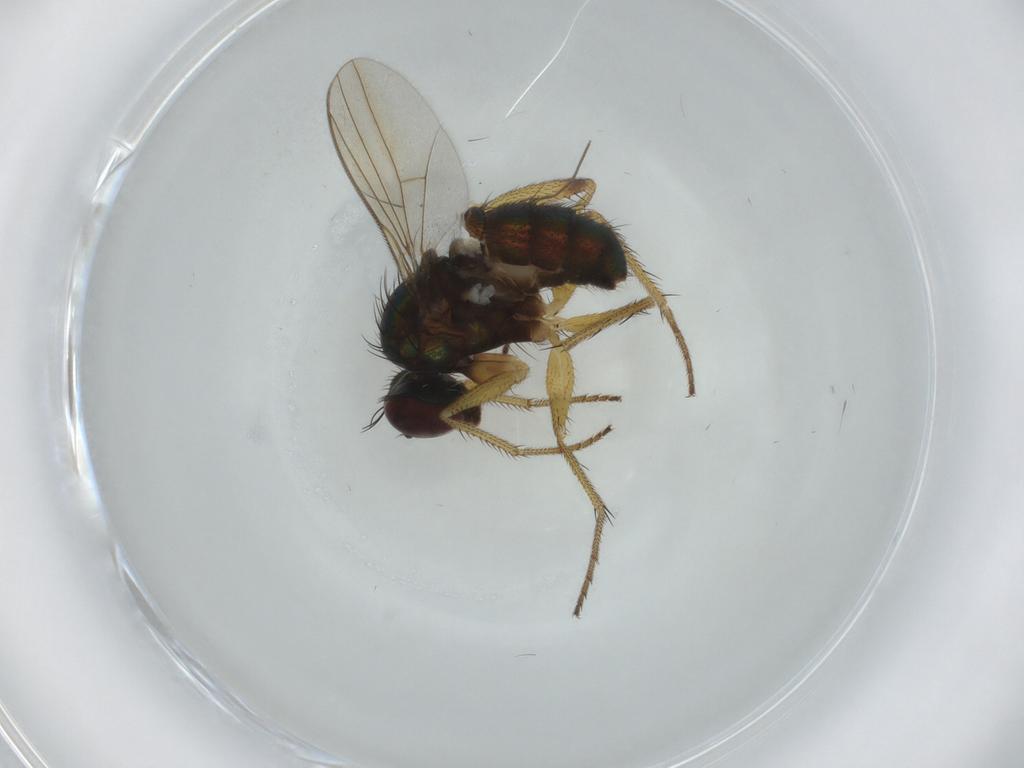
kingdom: Animalia
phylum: Arthropoda
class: Insecta
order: Diptera
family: Dolichopodidae
